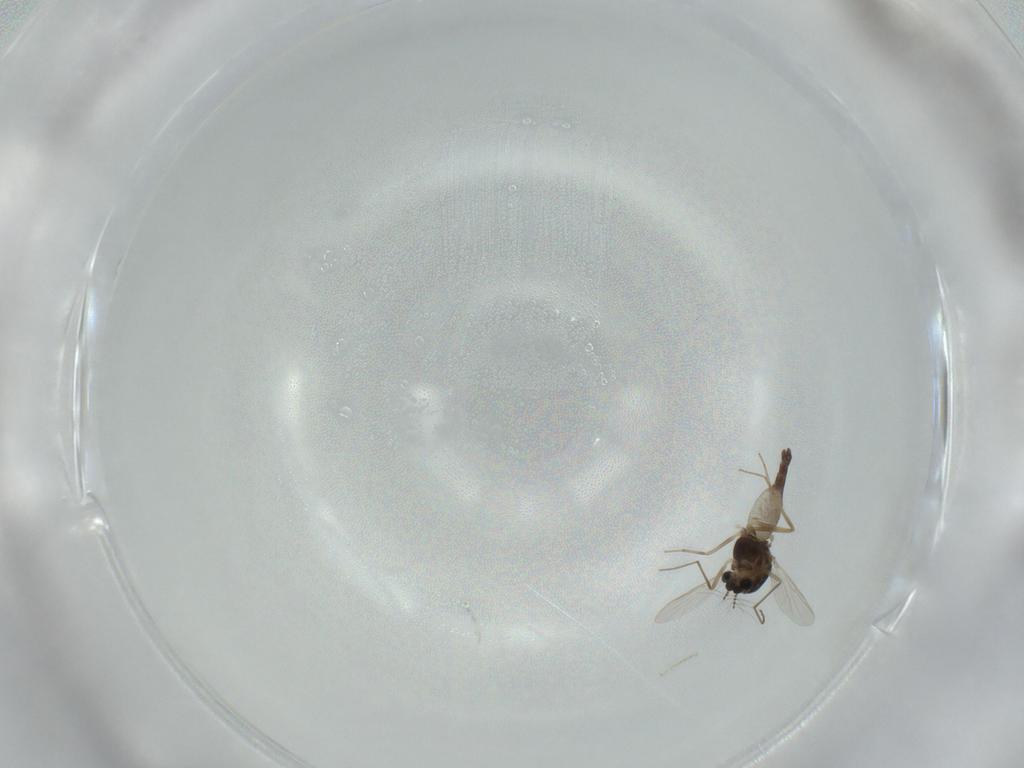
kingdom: Animalia
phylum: Arthropoda
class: Insecta
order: Diptera
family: Chironomidae
